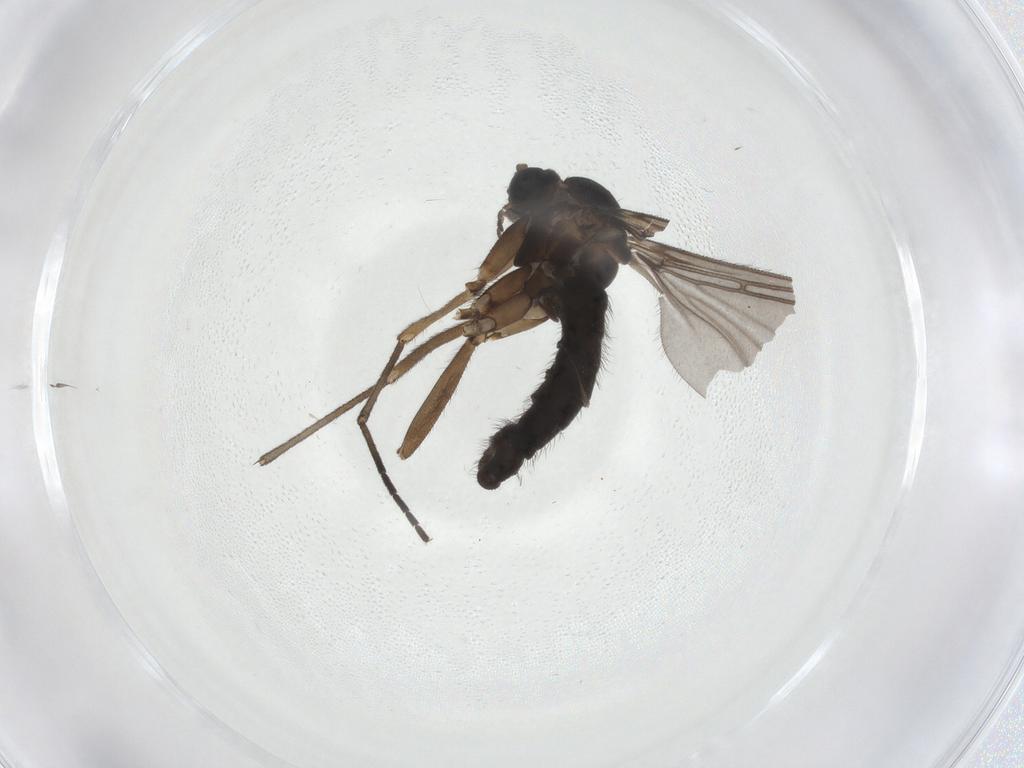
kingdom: Animalia
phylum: Arthropoda
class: Insecta
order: Diptera
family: Sciaridae
